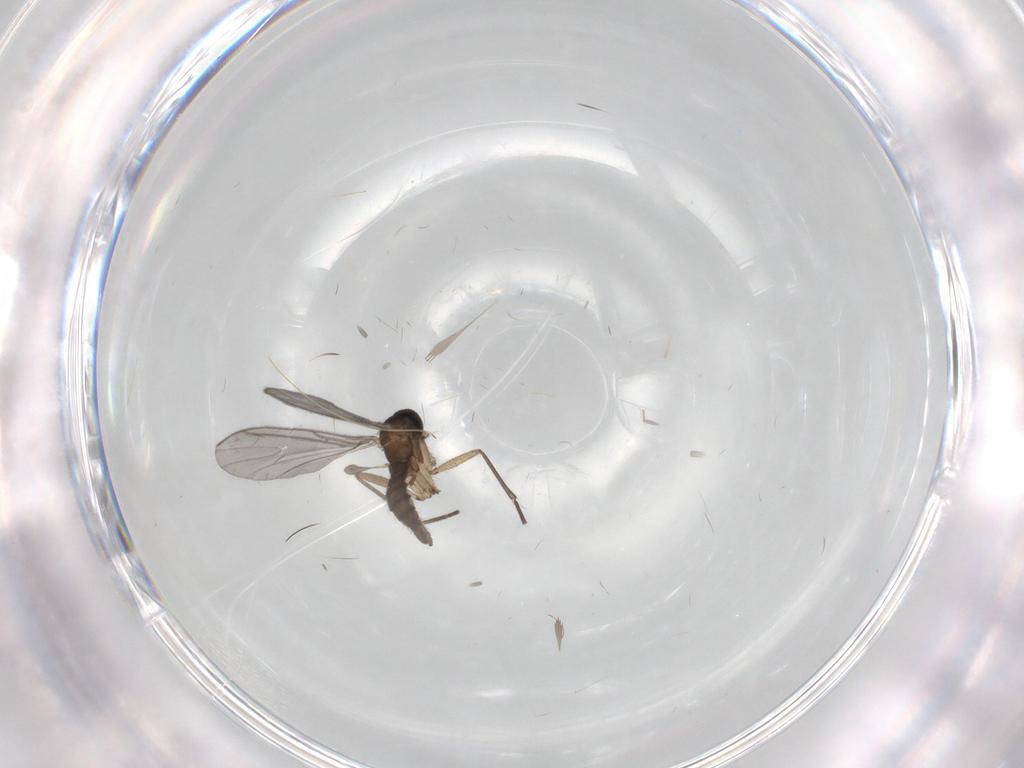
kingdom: Animalia
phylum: Arthropoda
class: Insecta
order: Diptera
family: Sciaridae
